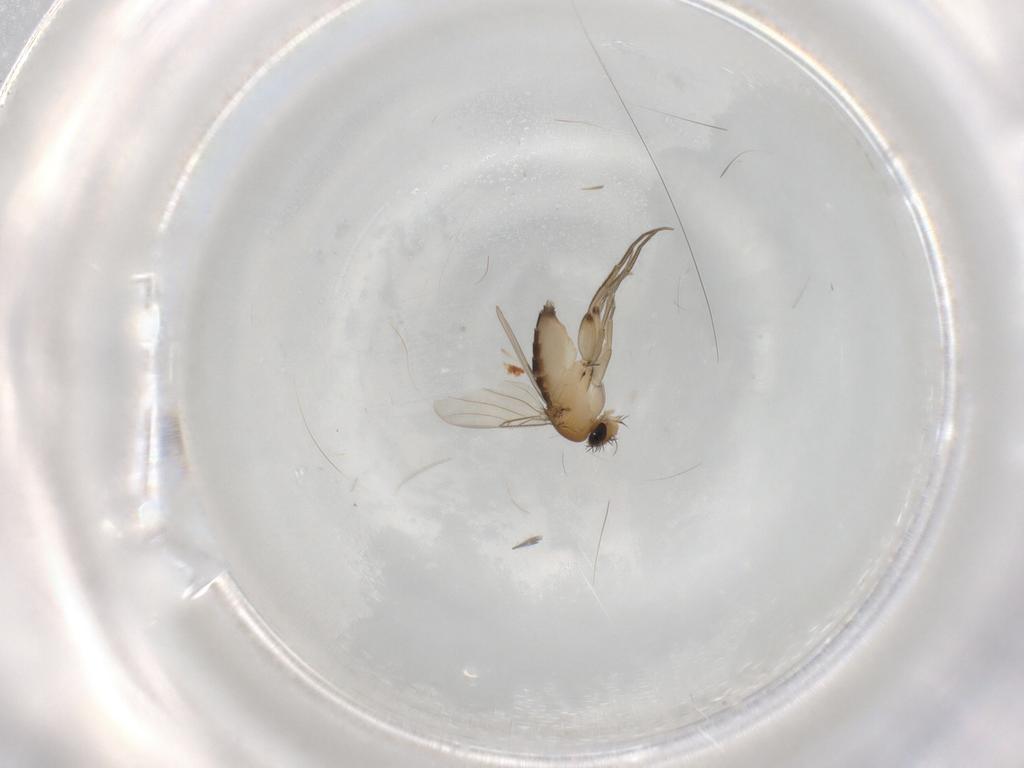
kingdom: Animalia
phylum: Arthropoda
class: Insecta
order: Diptera
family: Phoridae
